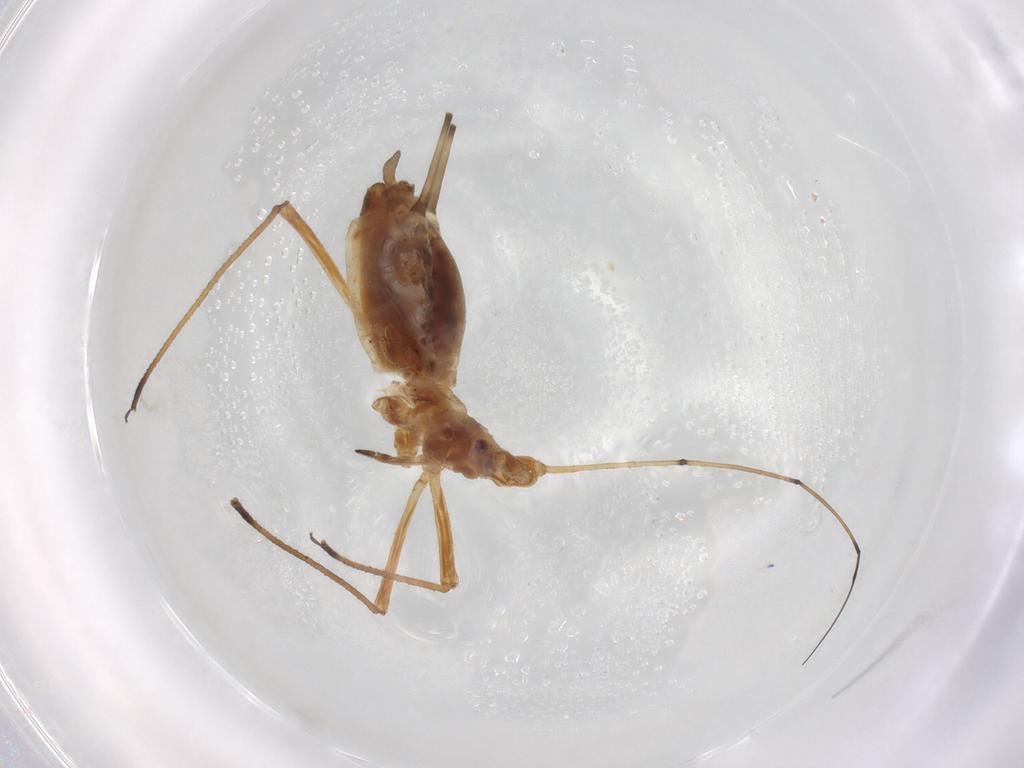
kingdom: Animalia
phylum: Arthropoda
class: Insecta
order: Hemiptera
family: Aphididae
